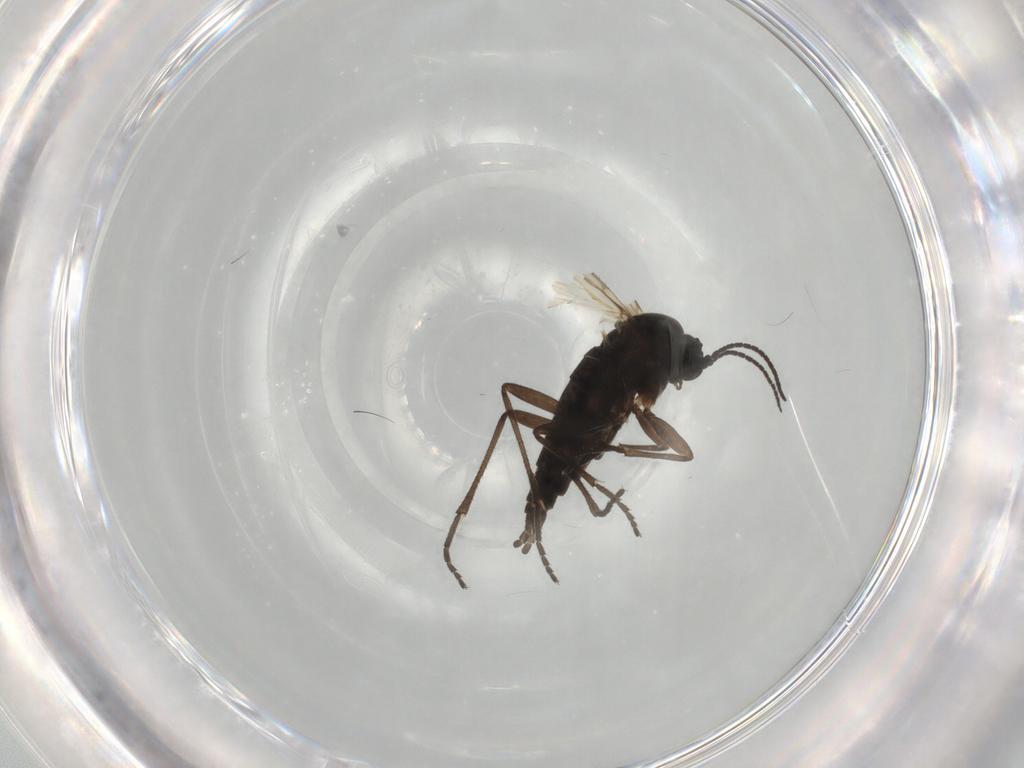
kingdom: Animalia
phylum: Arthropoda
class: Insecta
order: Diptera
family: Sciaridae
